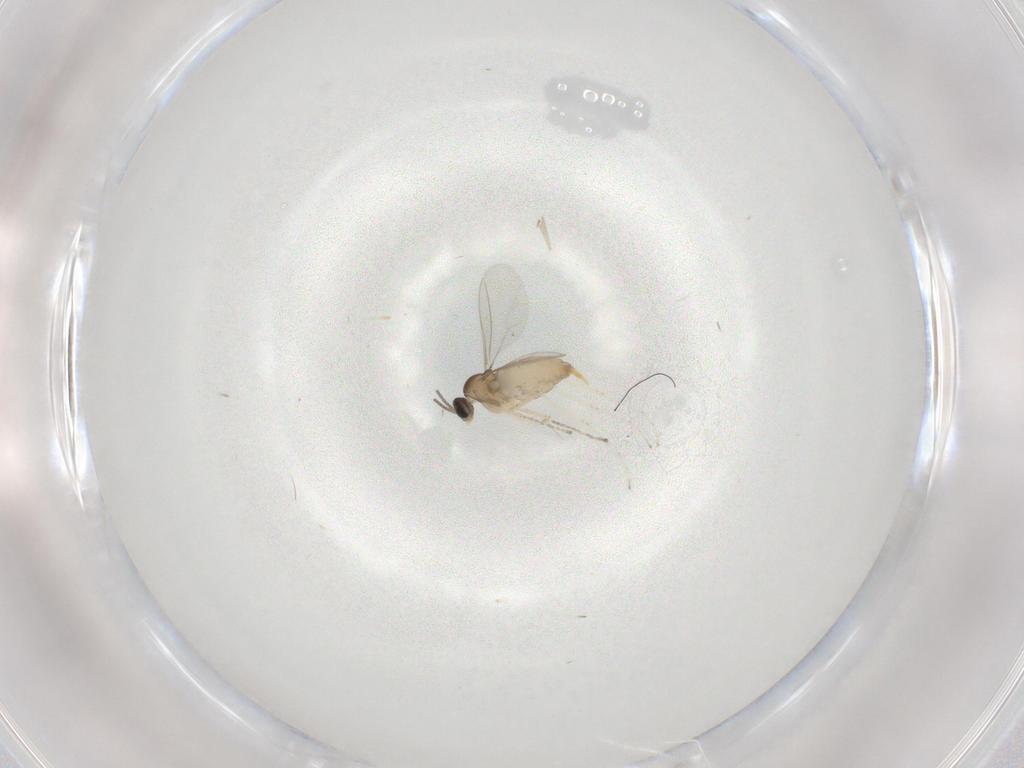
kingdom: Animalia
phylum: Arthropoda
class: Insecta
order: Diptera
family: Cecidomyiidae
